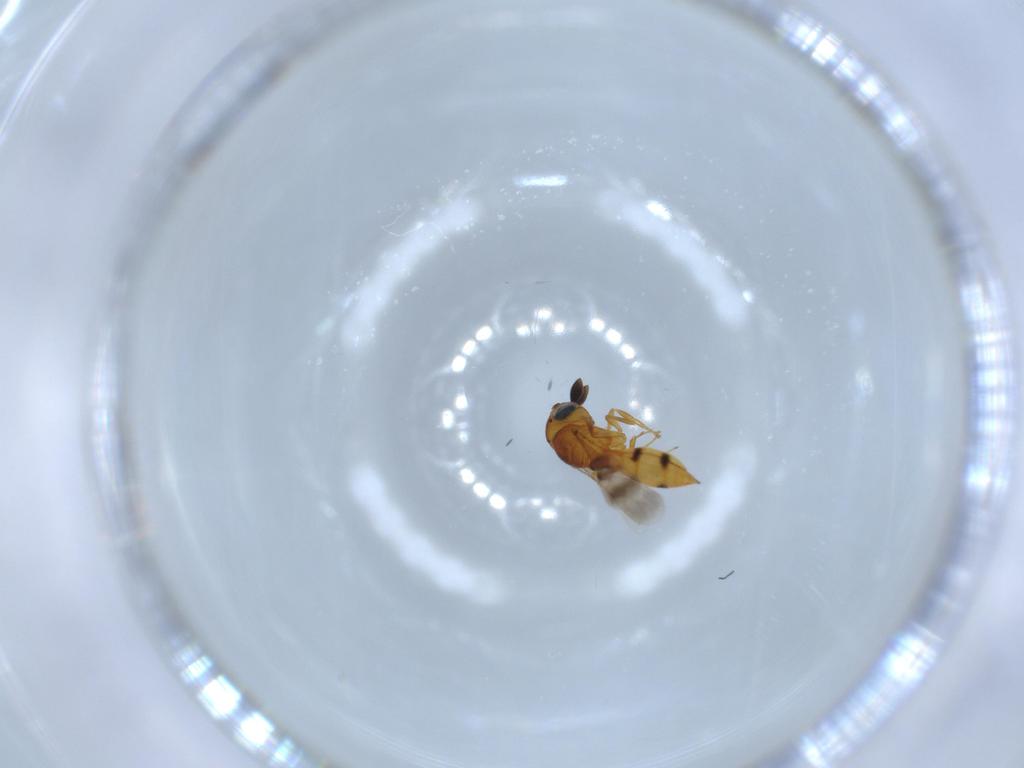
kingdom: Animalia
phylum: Arthropoda
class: Insecta
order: Hymenoptera
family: Scelionidae
